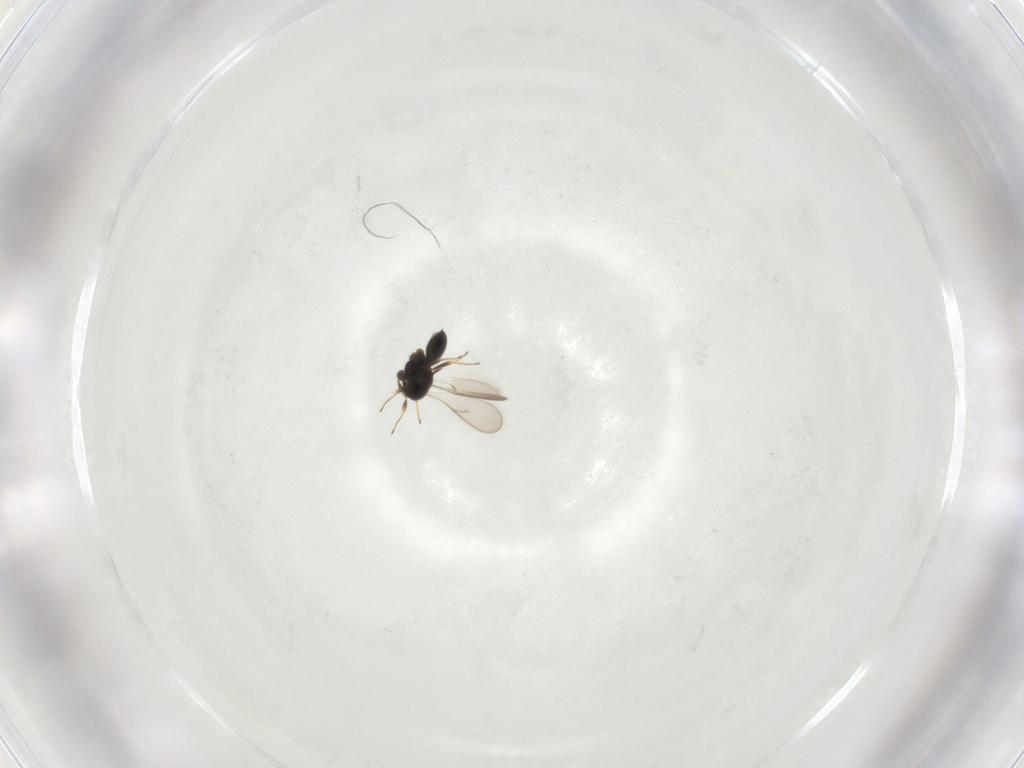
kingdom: Animalia
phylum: Arthropoda
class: Insecta
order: Hymenoptera
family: Scelionidae
